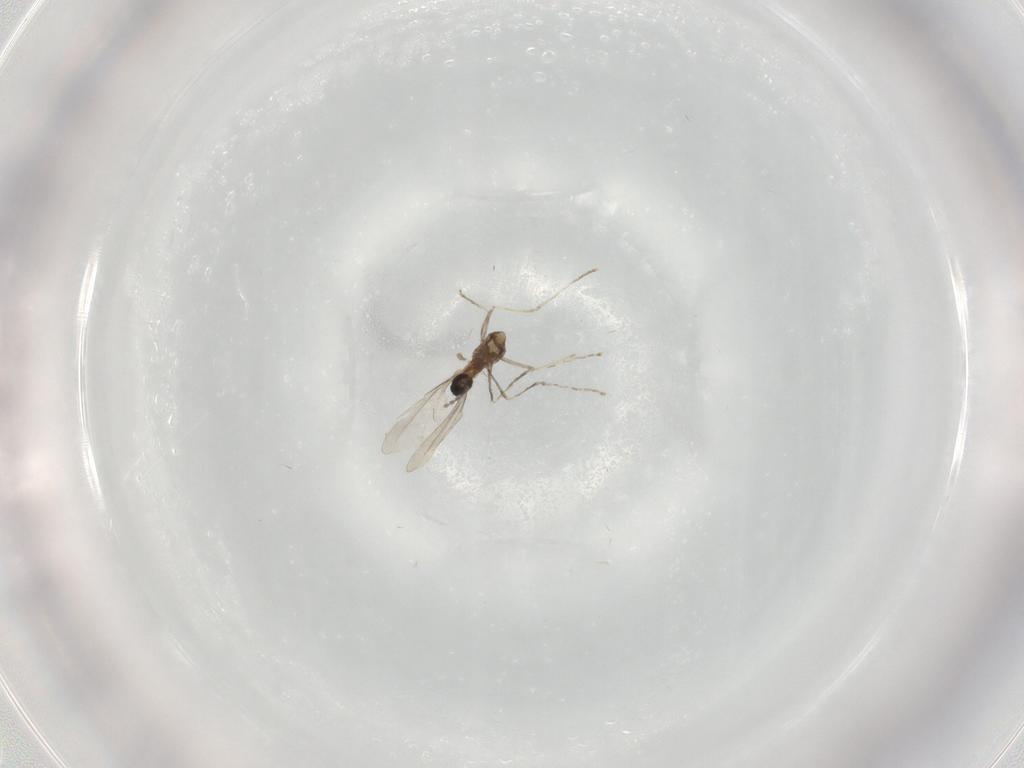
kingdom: Animalia
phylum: Arthropoda
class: Insecta
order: Diptera
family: Cecidomyiidae
